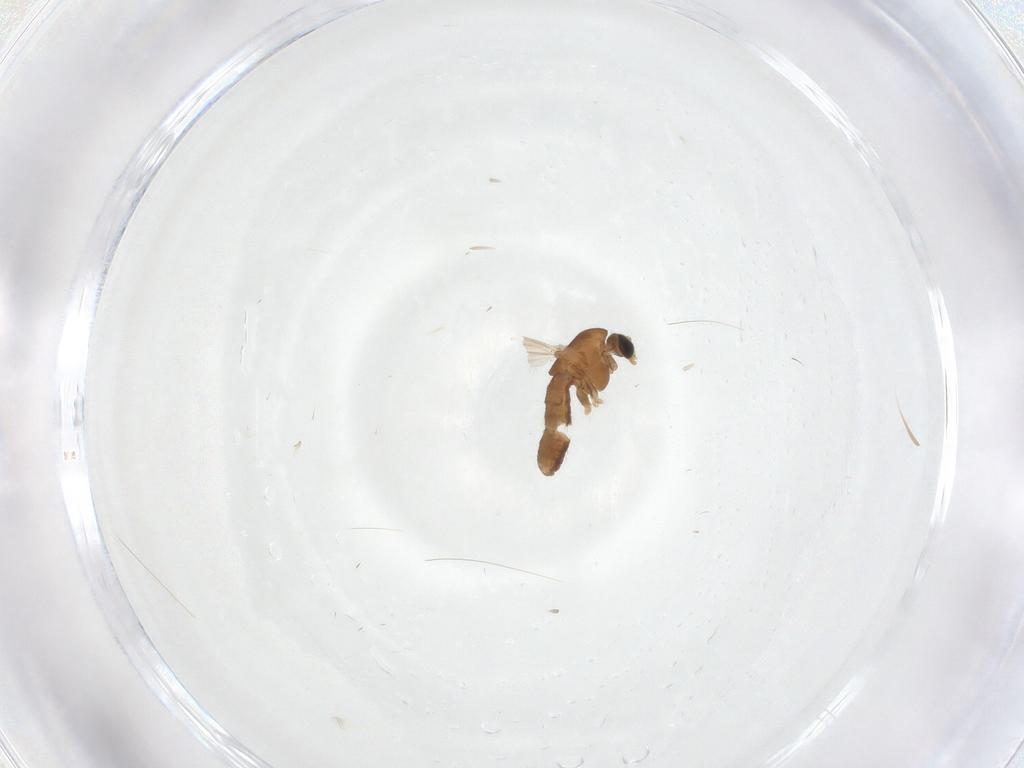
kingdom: Animalia
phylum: Arthropoda
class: Insecta
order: Diptera
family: Chironomidae
